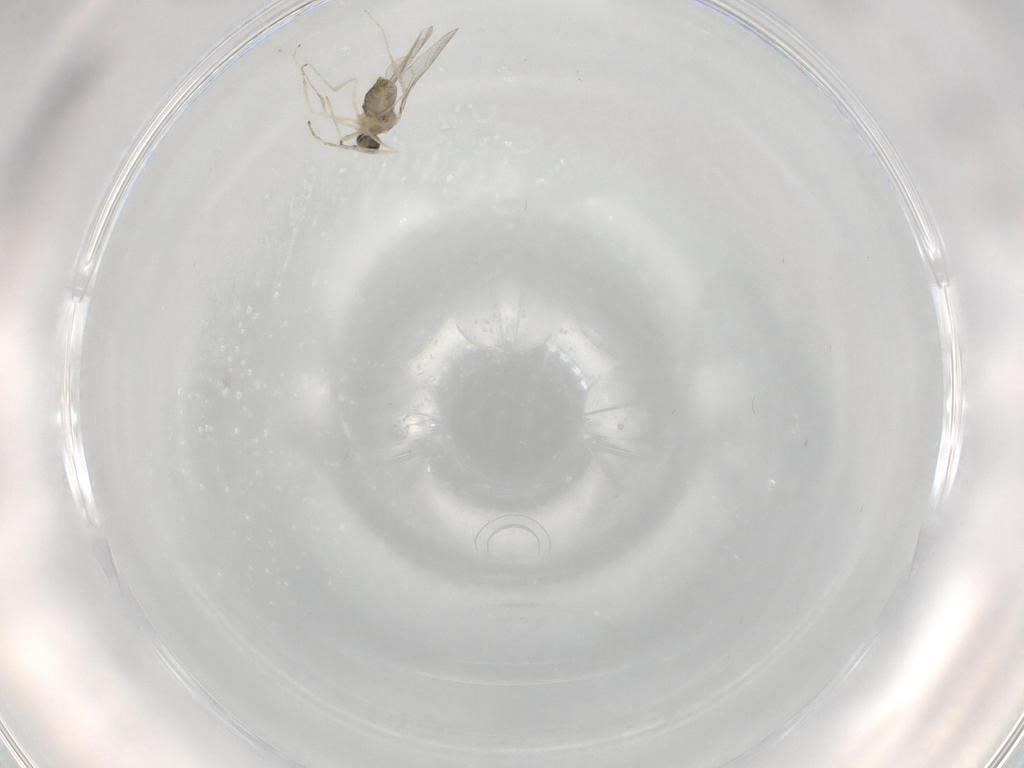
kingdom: Animalia
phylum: Arthropoda
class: Insecta
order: Diptera
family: Cecidomyiidae
